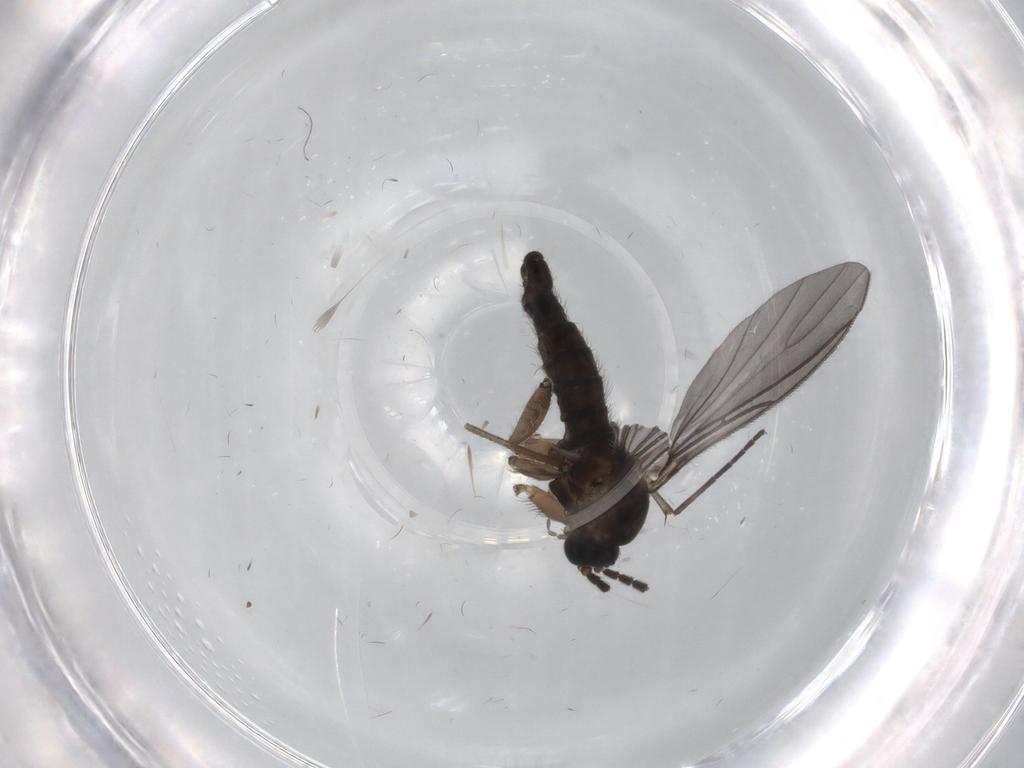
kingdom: Animalia
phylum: Arthropoda
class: Insecta
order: Diptera
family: Sciaridae
